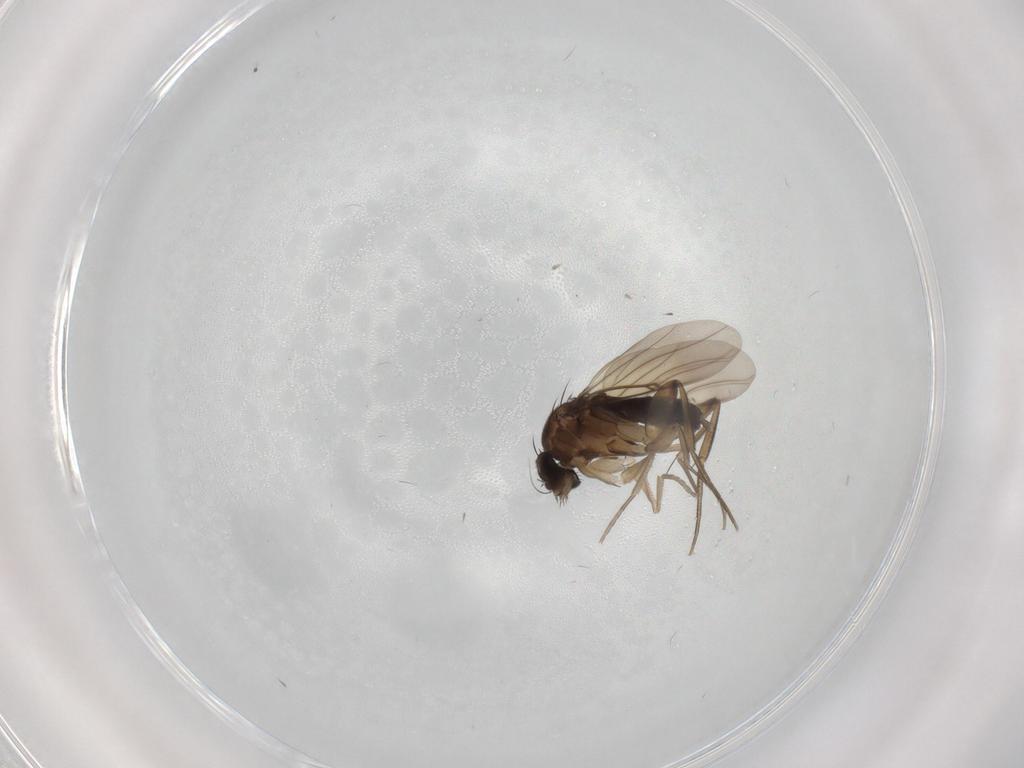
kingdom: Animalia
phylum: Arthropoda
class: Insecta
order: Diptera
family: Phoridae
